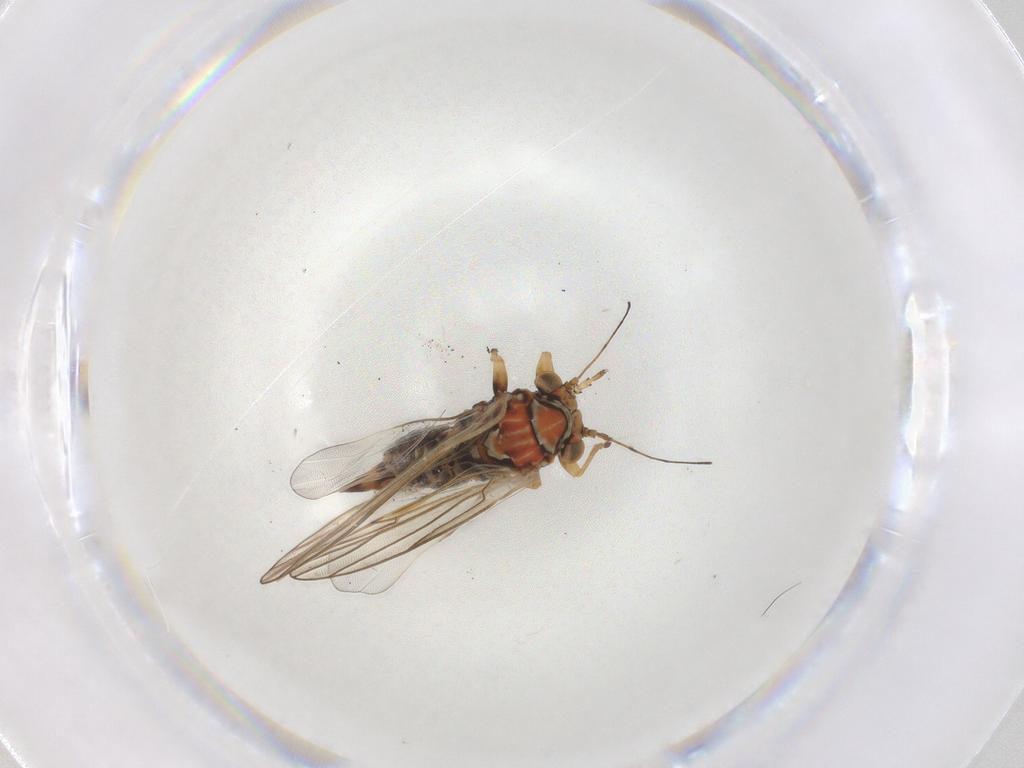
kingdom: Animalia
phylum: Arthropoda
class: Insecta
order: Hemiptera
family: Psyllidae
